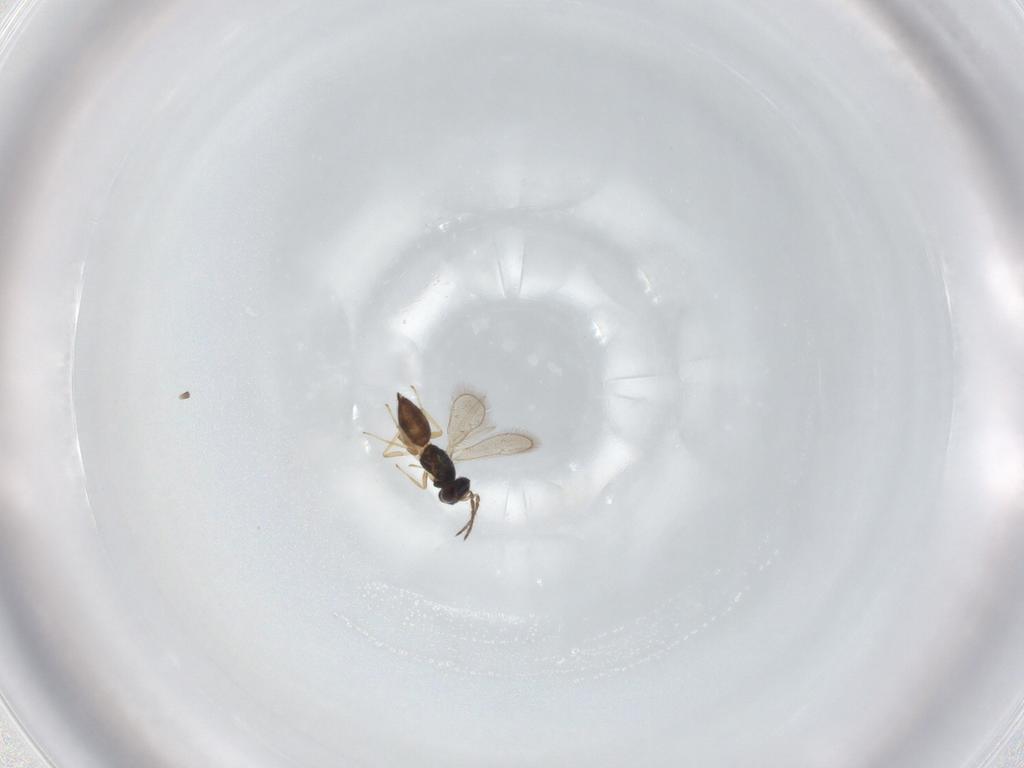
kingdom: Animalia
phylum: Arthropoda
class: Insecta
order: Hymenoptera
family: Eulophidae
